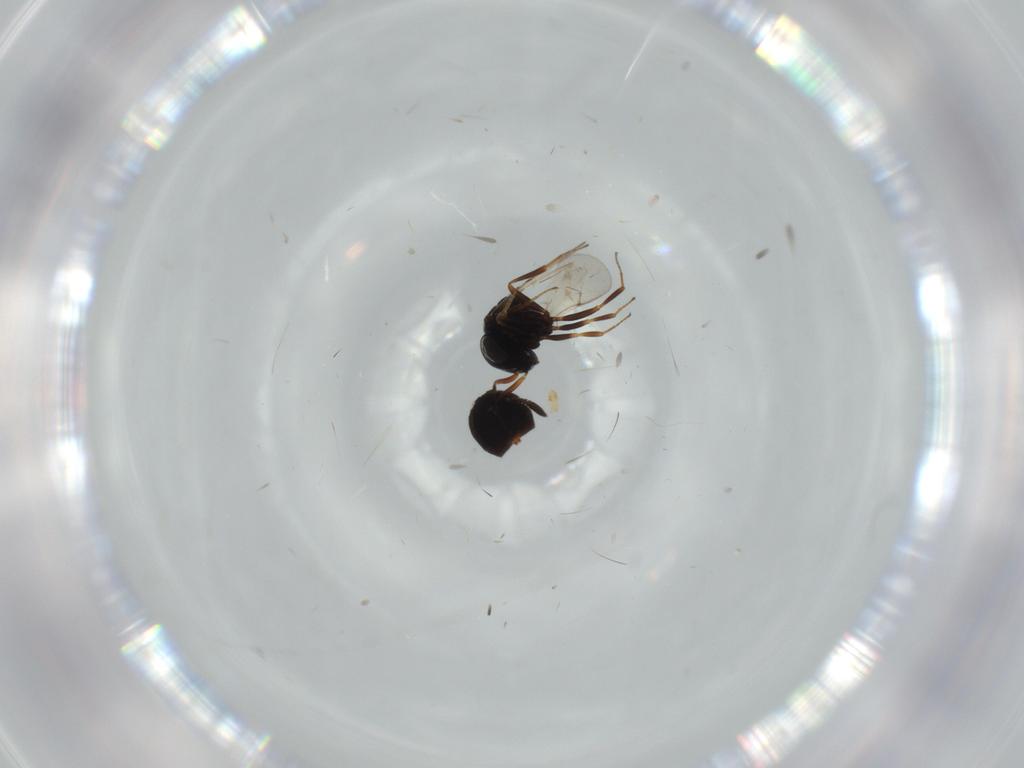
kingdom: Animalia
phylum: Arthropoda
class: Insecta
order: Hymenoptera
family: Scelionidae
